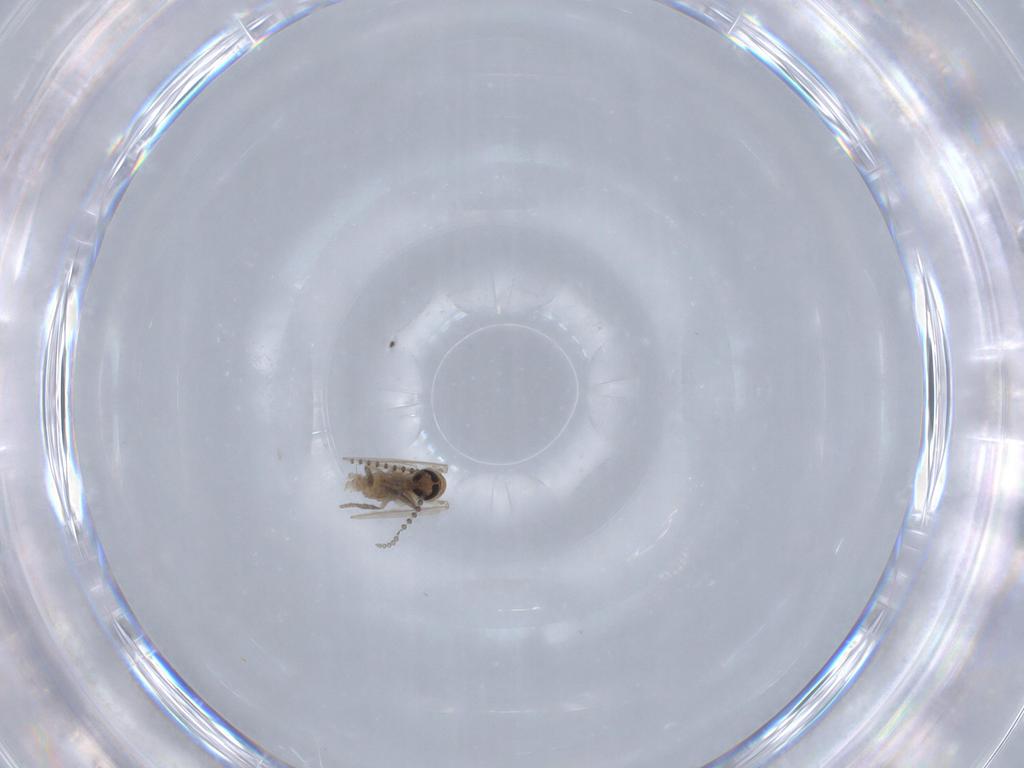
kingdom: Animalia
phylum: Arthropoda
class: Insecta
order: Diptera
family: Psychodidae
